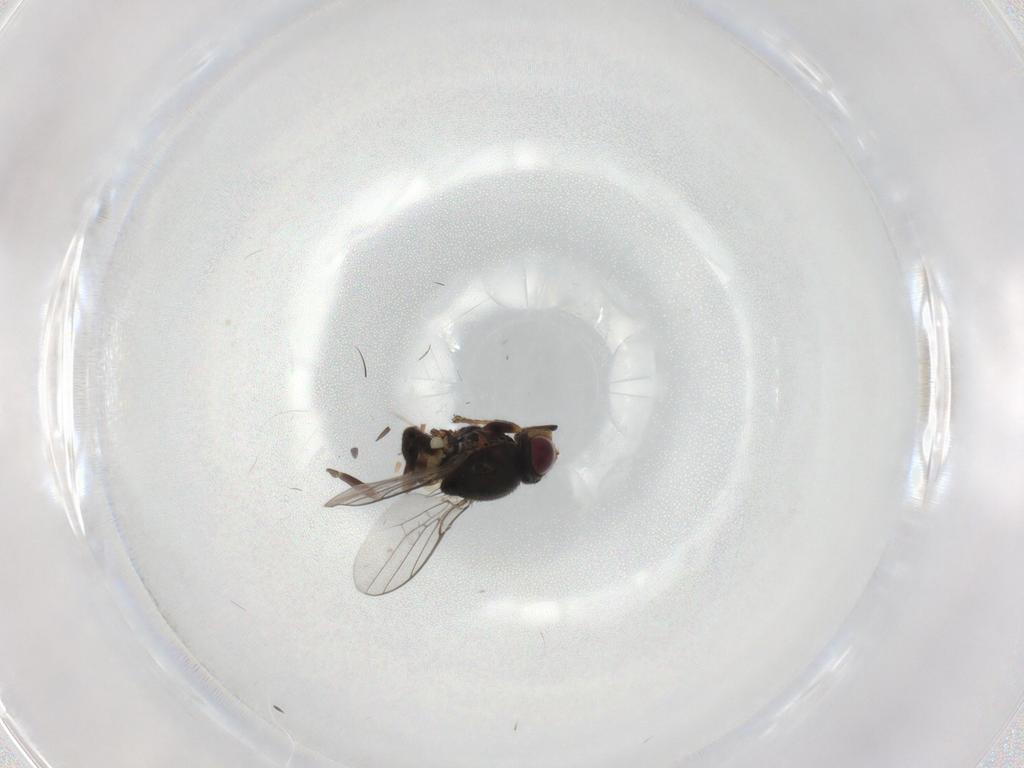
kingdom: Animalia
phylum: Arthropoda
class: Insecta
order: Diptera
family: Chloropidae
